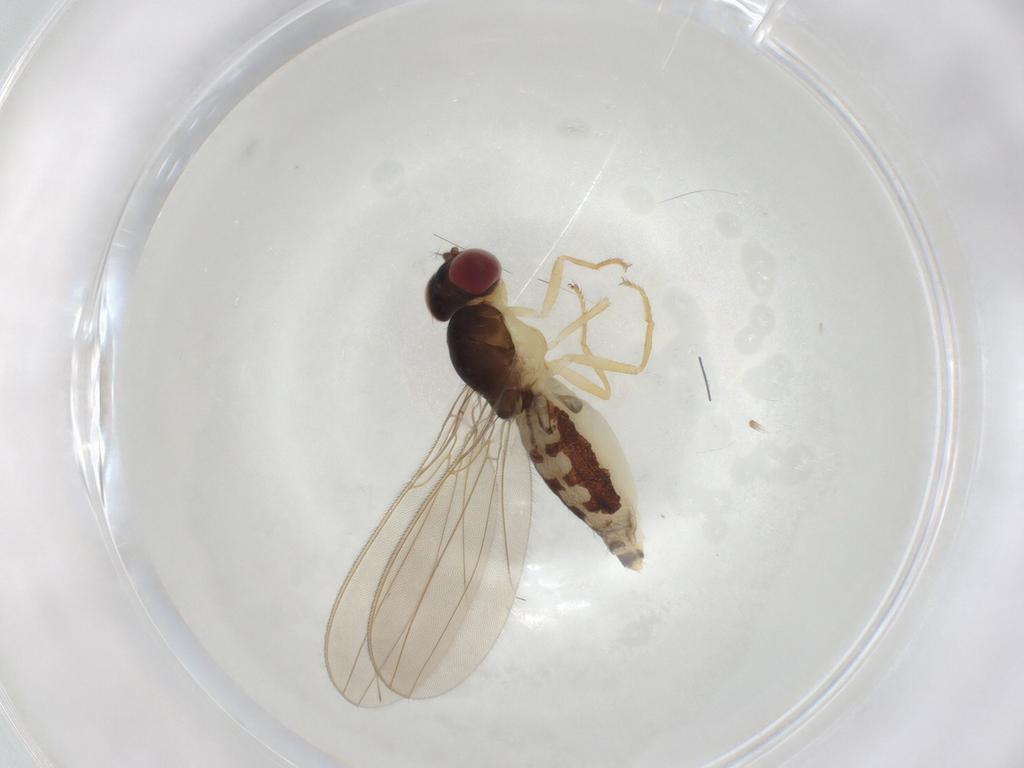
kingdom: Animalia
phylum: Arthropoda
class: Insecta
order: Diptera
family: Asteiidae
